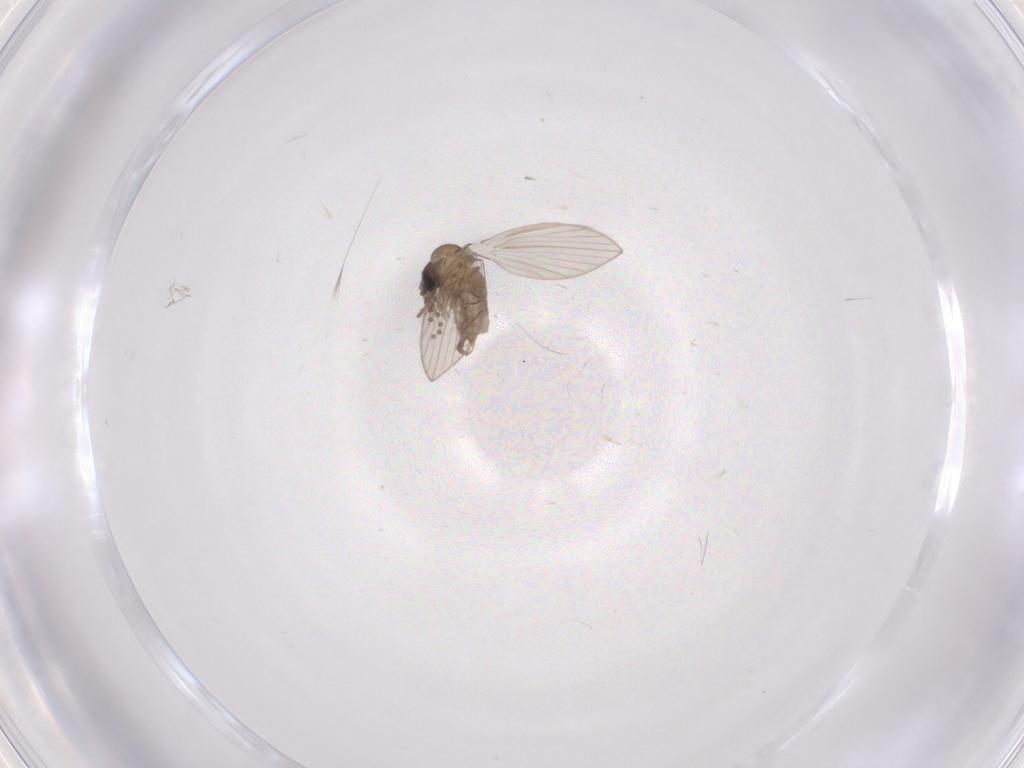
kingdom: Animalia
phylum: Arthropoda
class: Insecta
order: Diptera
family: Psychodidae
